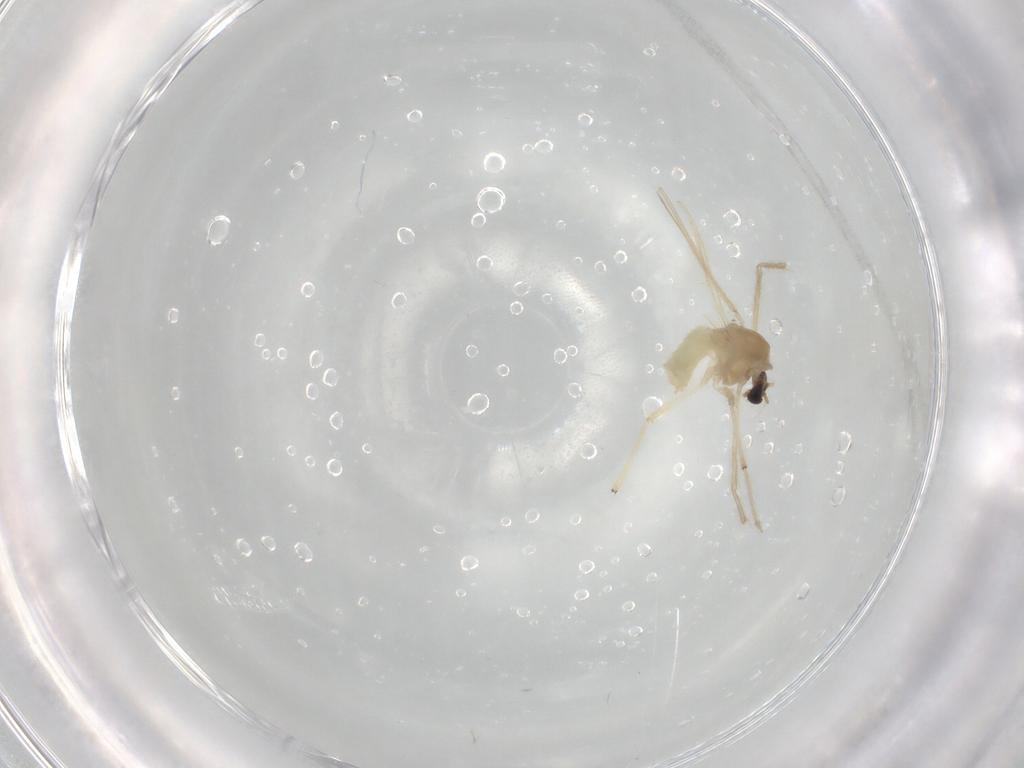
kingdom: Animalia
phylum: Arthropoda
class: Insecta
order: Diptera
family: Chironomidae
